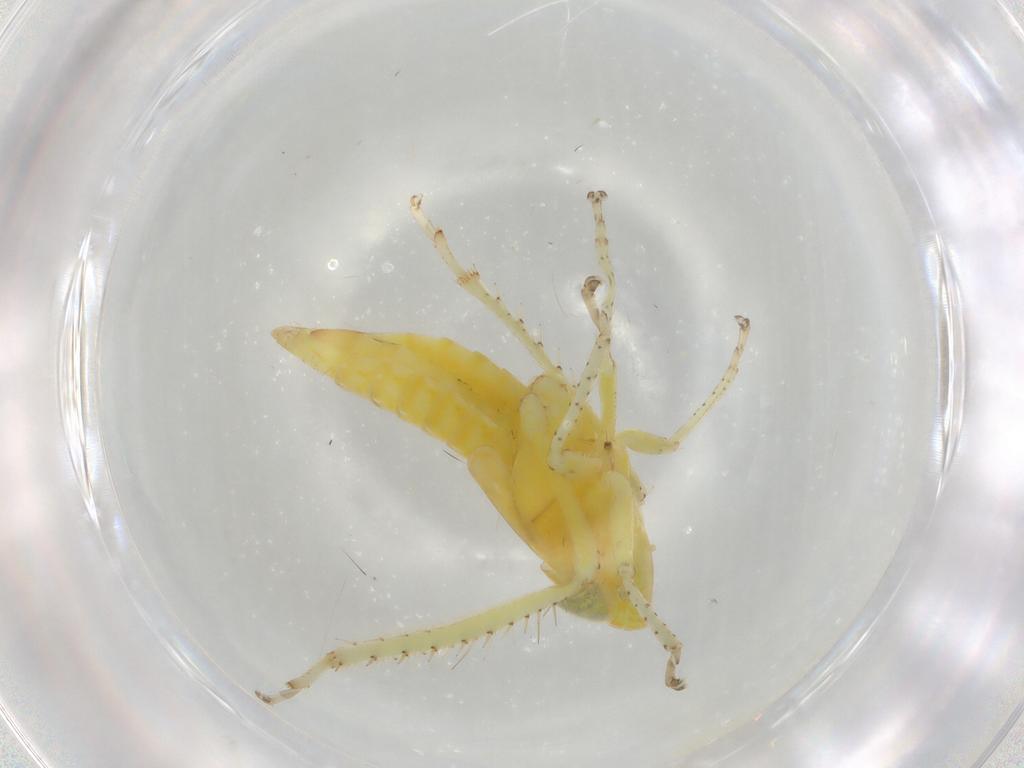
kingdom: Animalia
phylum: Arthropoda
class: Insecta
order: Hemiptera
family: Cicadellidae
